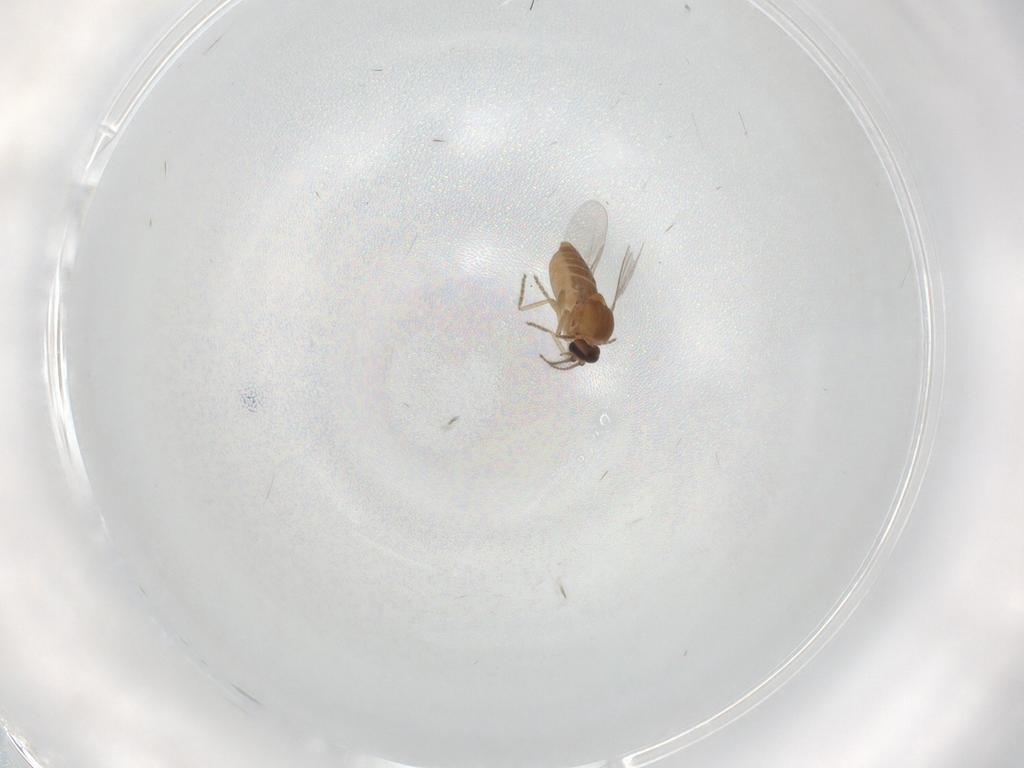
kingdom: Animalia
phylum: Arthropoda
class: Insecta
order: Diptera
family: Ceratopogonidae
